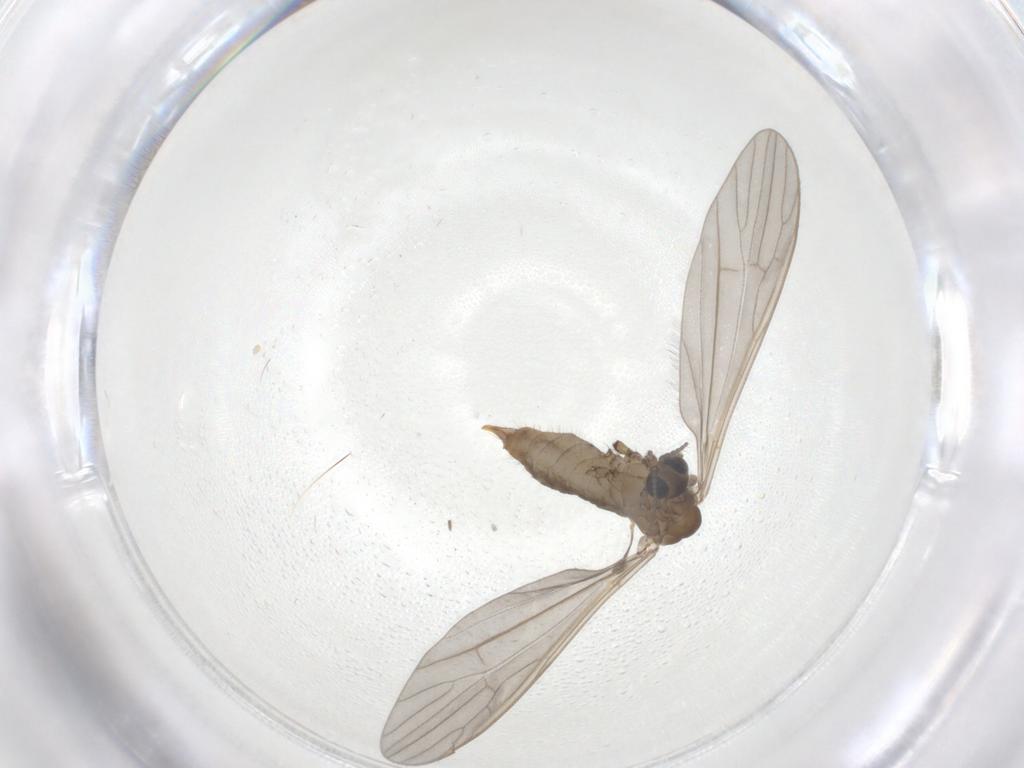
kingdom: Animalia
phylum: Arthropoda
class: Insecta
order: Diptera
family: Limoniidae
